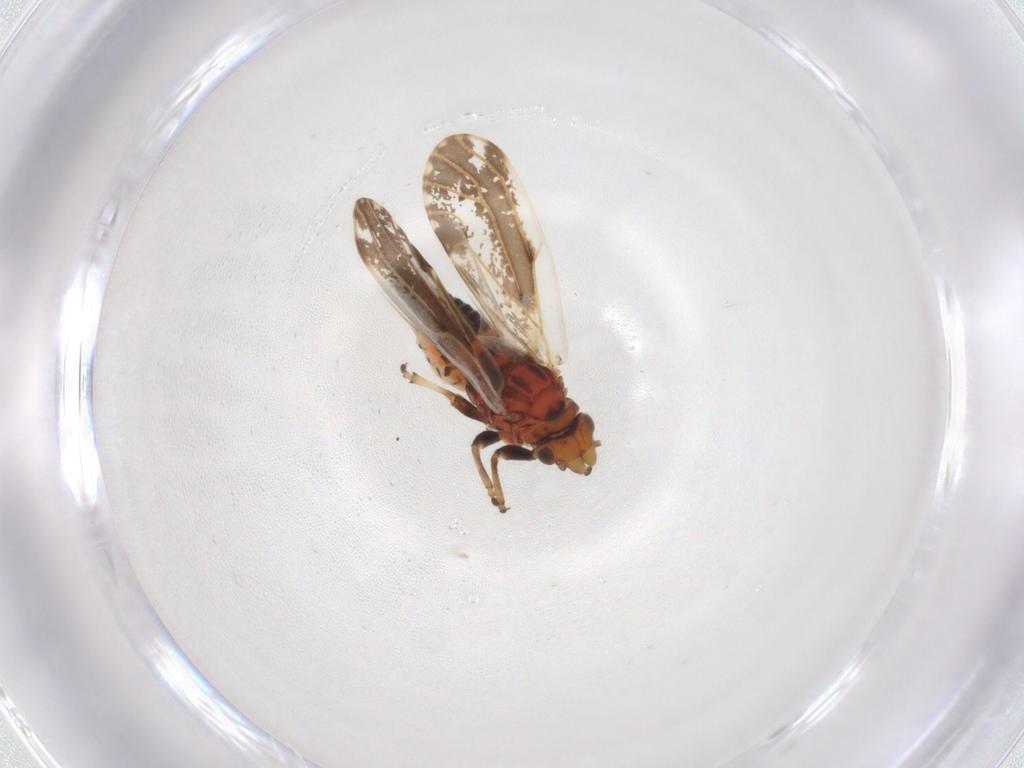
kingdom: Animalia
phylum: Arthropoda
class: Insecta
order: Hemiptera
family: Psylloidea_incertae_sedis
